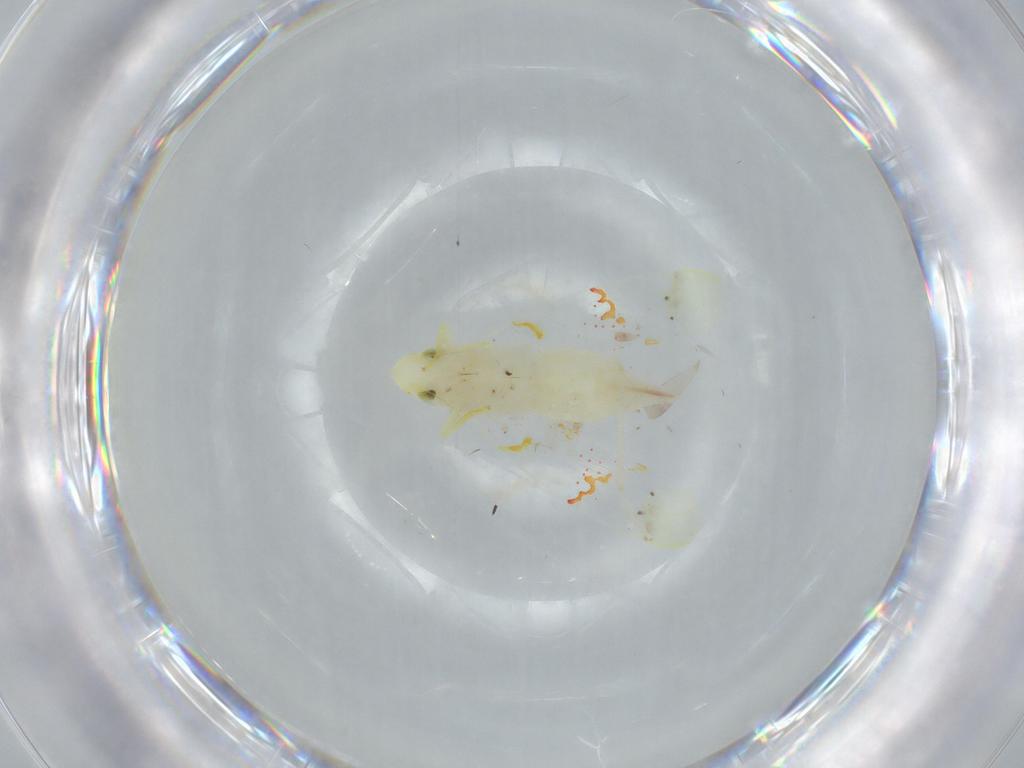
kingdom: Animalia
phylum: Arthropoda
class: Insecta
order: Hemiptera
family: Cicadellidae
